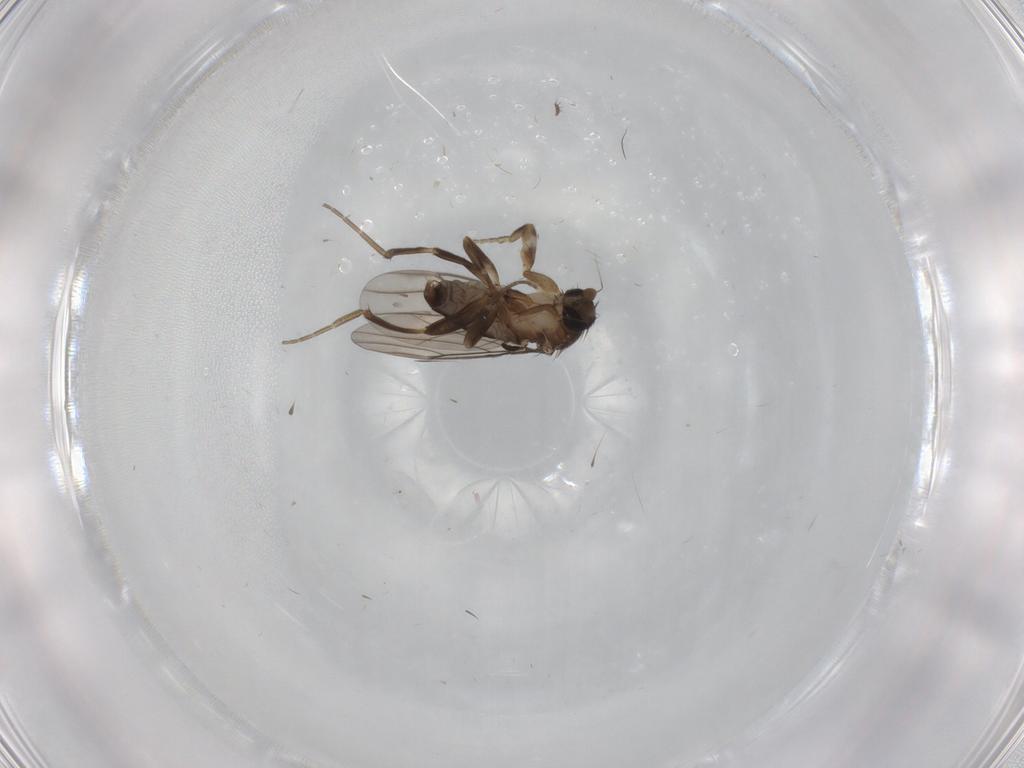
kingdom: Animalia
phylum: Arthropoda
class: Insecta
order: Diptera
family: Phoridae
